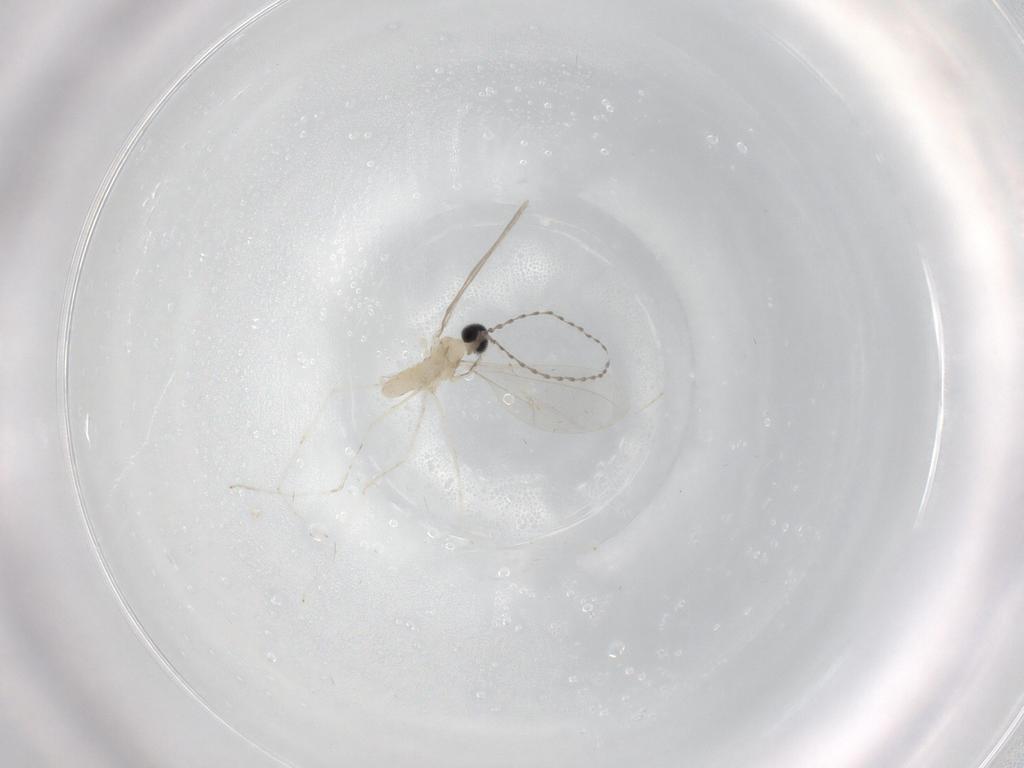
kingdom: Animalia
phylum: Arthropoda
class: Insecta
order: Diptera
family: Cecidomyiidae
